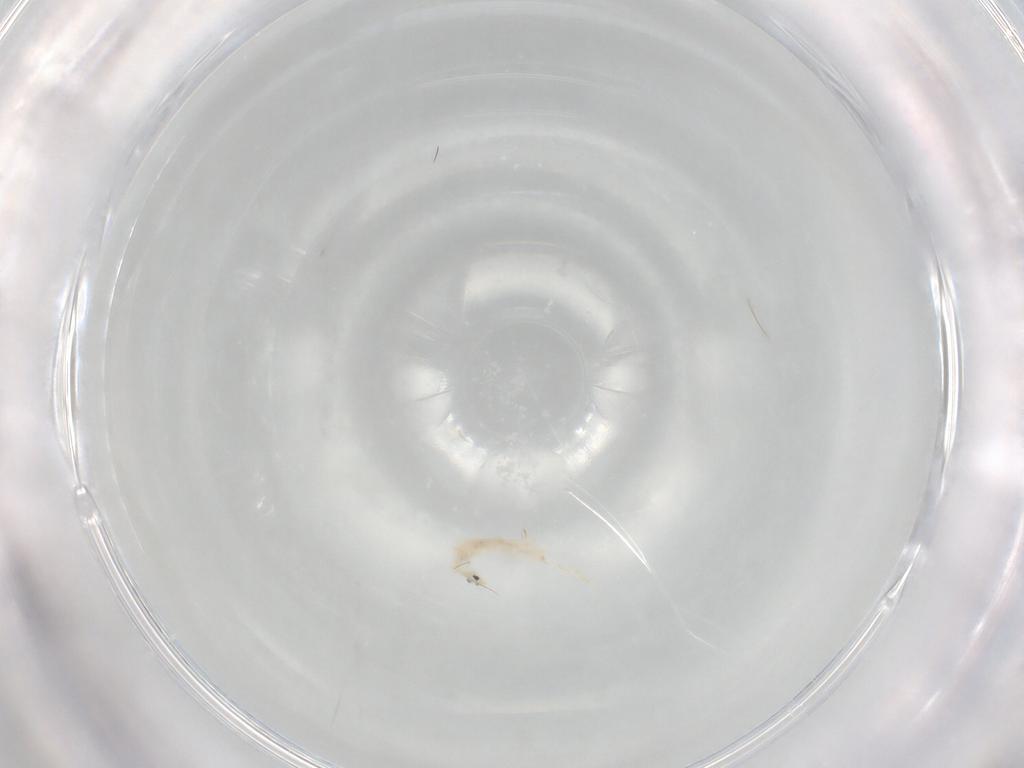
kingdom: Animalia
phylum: Arthropoda
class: Collembola
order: Entomobryomorpha
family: Entomobryidae
